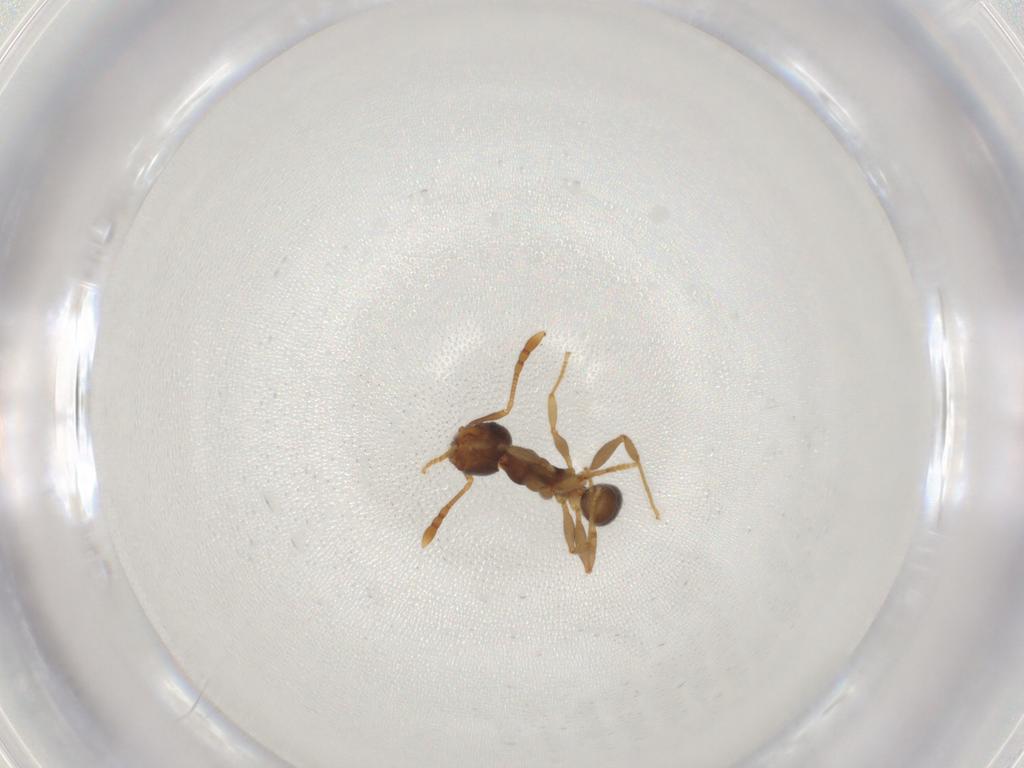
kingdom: Animalia
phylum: Arthropoda
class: Insecta
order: Hymenoptera
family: Formicidae
